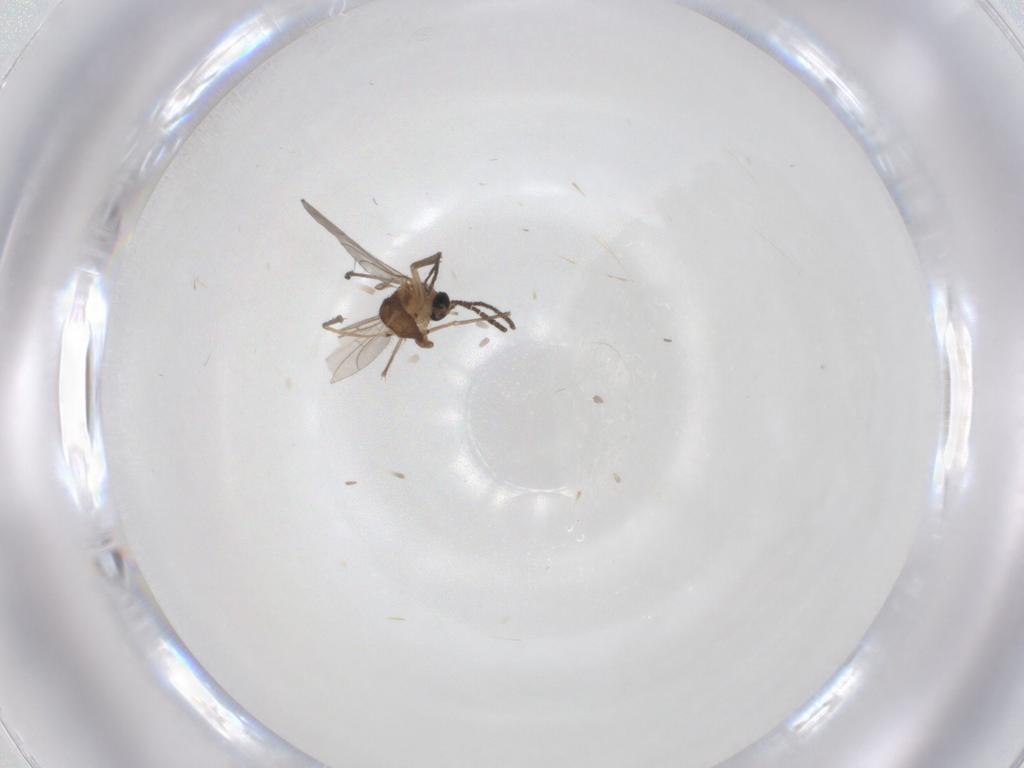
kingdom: Animalia
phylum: Arthropoda
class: Insecta
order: Diptera
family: Sciaridae
